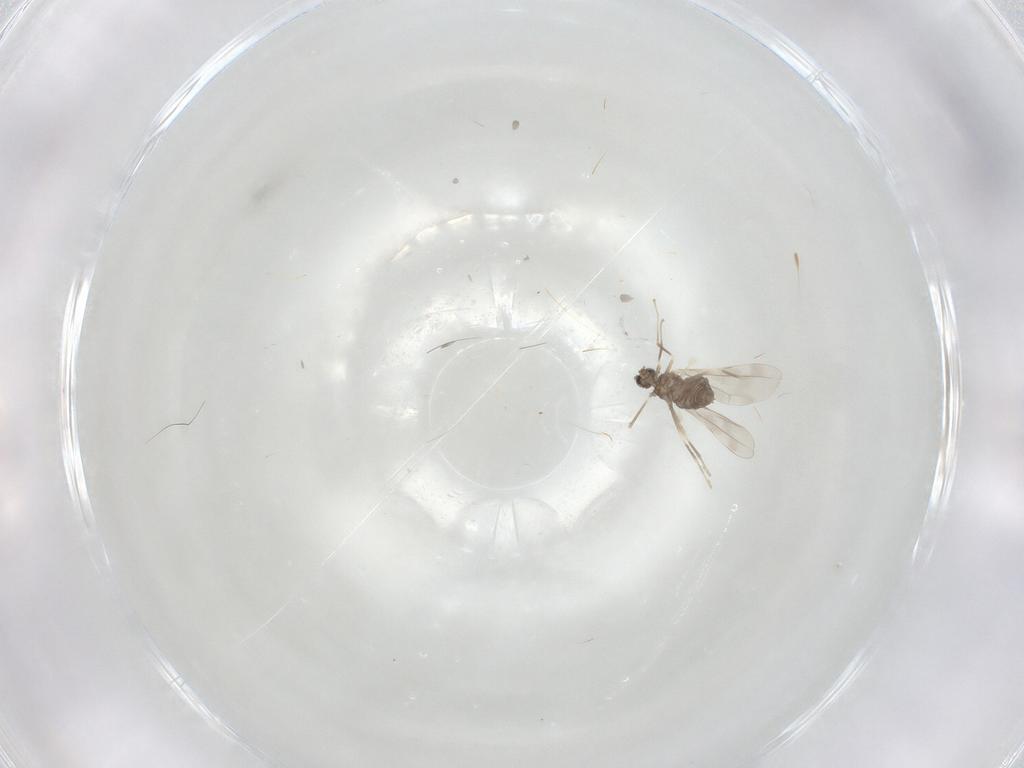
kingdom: Animalia
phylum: Arthropoda
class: Insecta
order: Diptera
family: Cecidomyiidae
